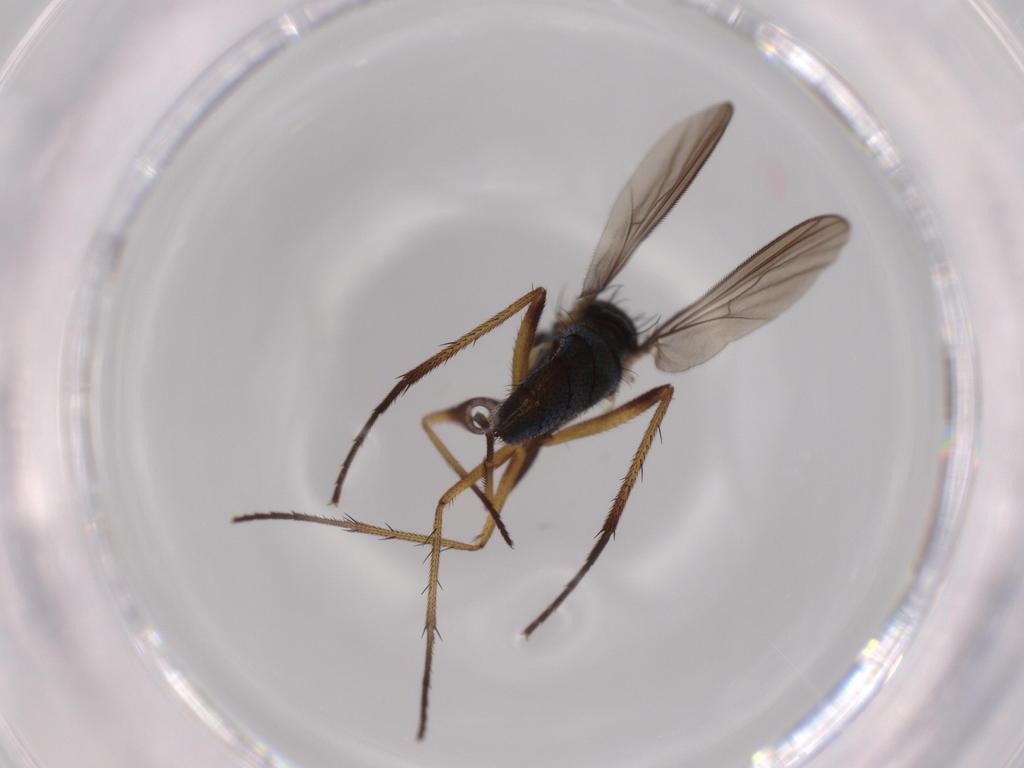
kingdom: Animalia
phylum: Arthropoda
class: Insecta
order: Diptera
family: Dolichopodidae
